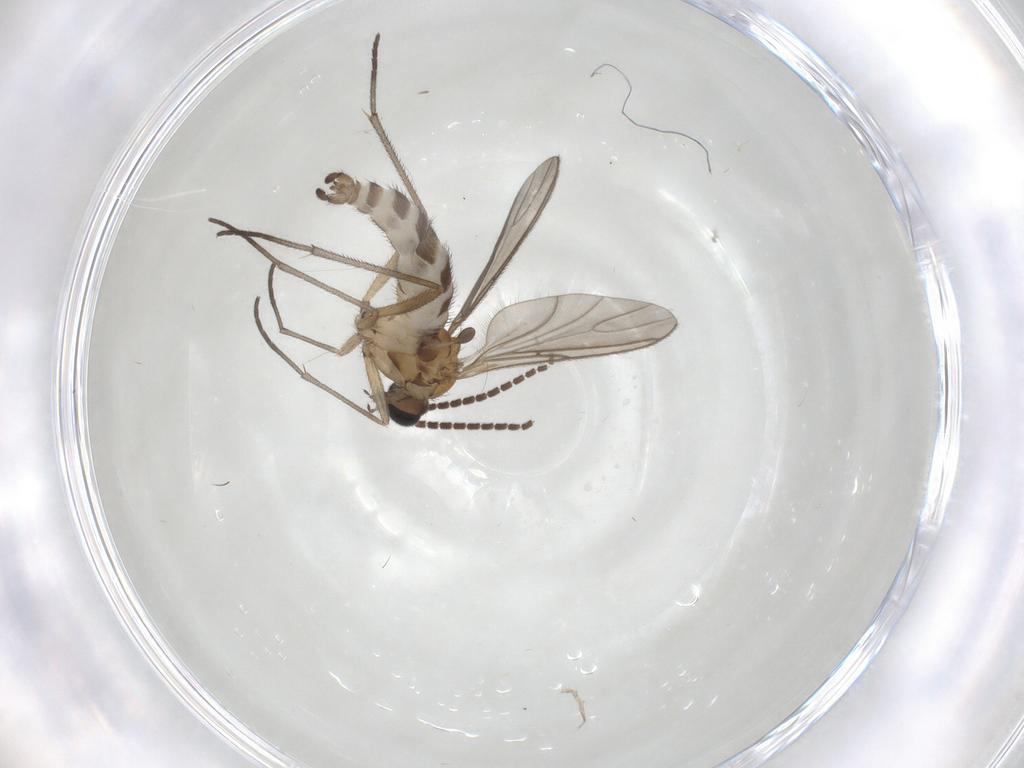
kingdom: Animalia
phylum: Arthropoda
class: Insecta
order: Diptera
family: Sciaridae
